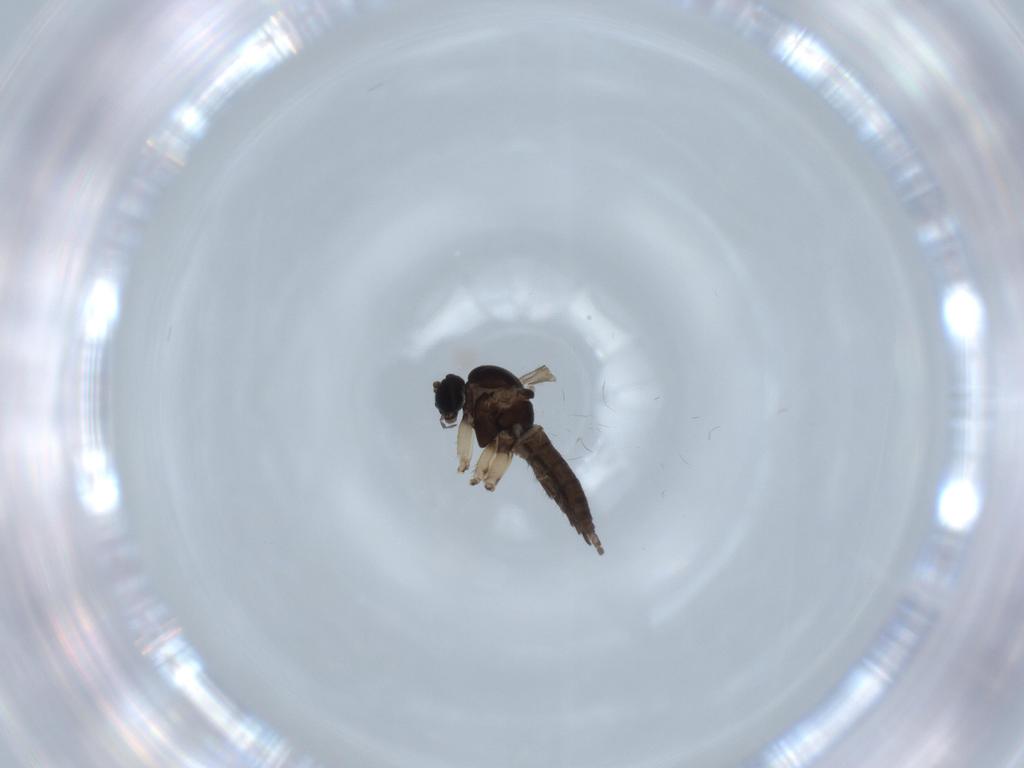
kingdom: Animalia
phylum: Arthropoda
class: Insecta
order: Diptera
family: Sciaridae
